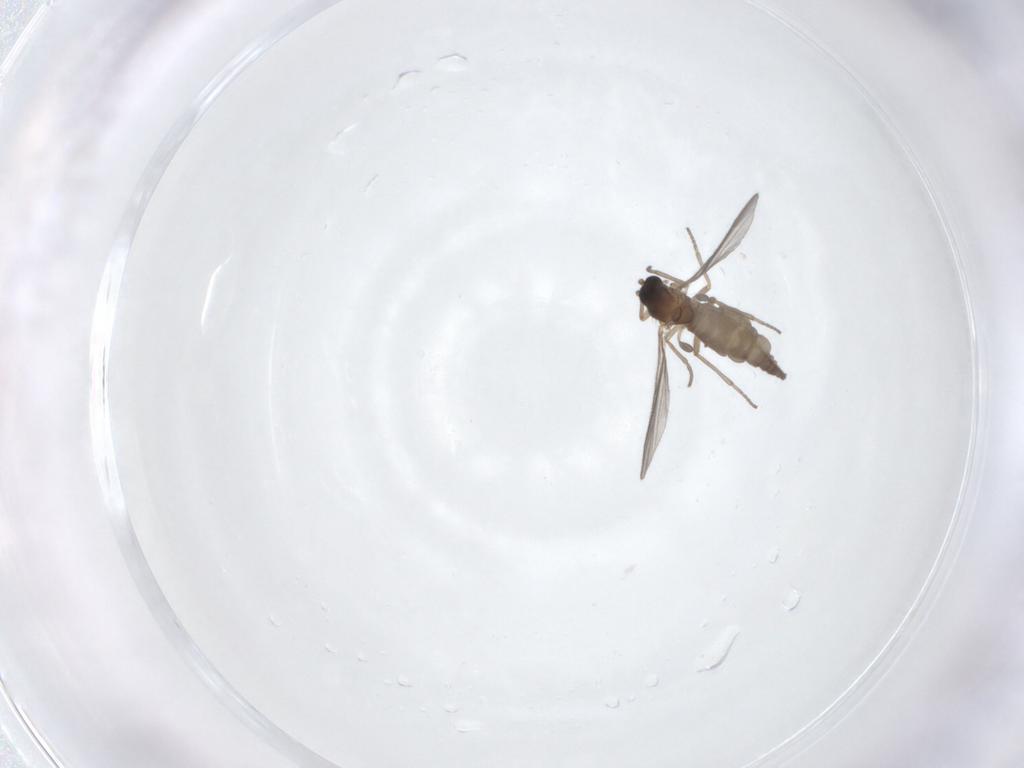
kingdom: Animalia
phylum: Arthropoda
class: Insecta
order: Diptera
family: Sciaridae
